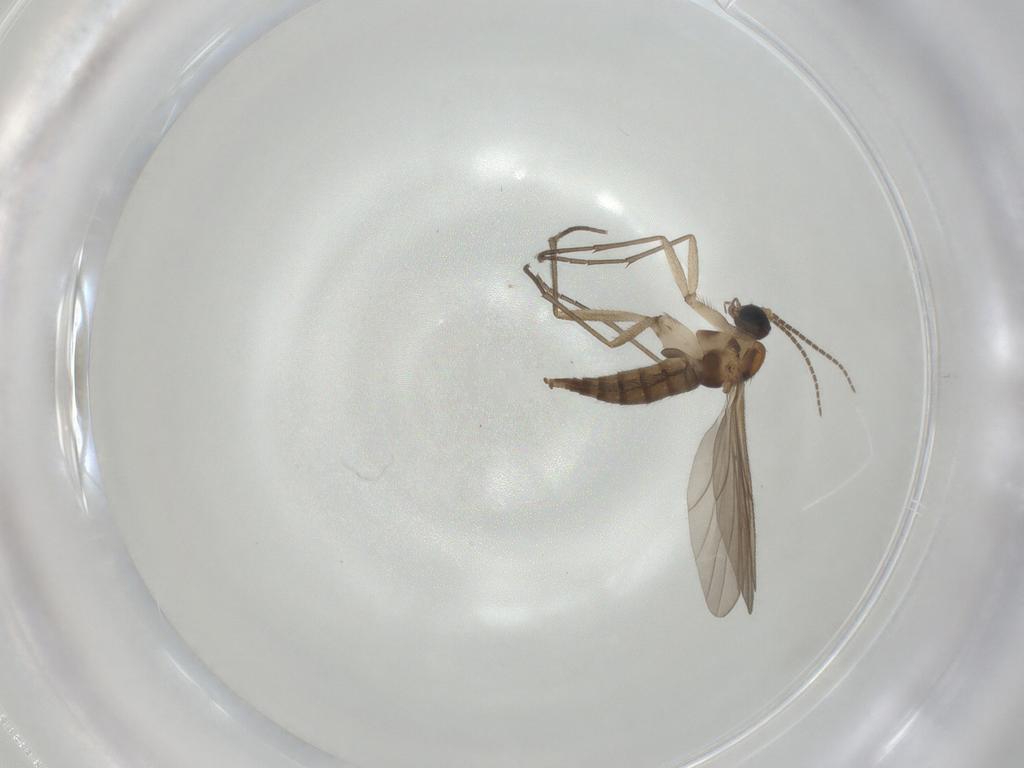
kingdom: Animalia
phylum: Arthropoda
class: Insecta
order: Diptera
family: Sciaridae
